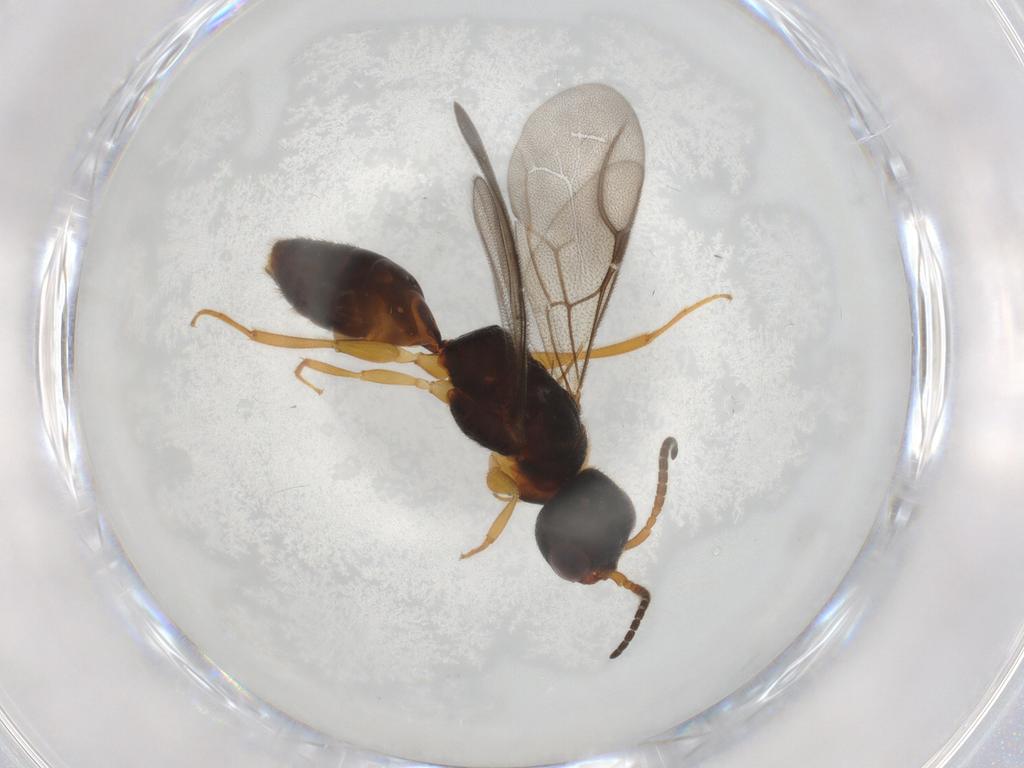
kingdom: Animalia
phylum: Arthropoda
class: Insecta
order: Hymenoptera
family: Bethylidae
